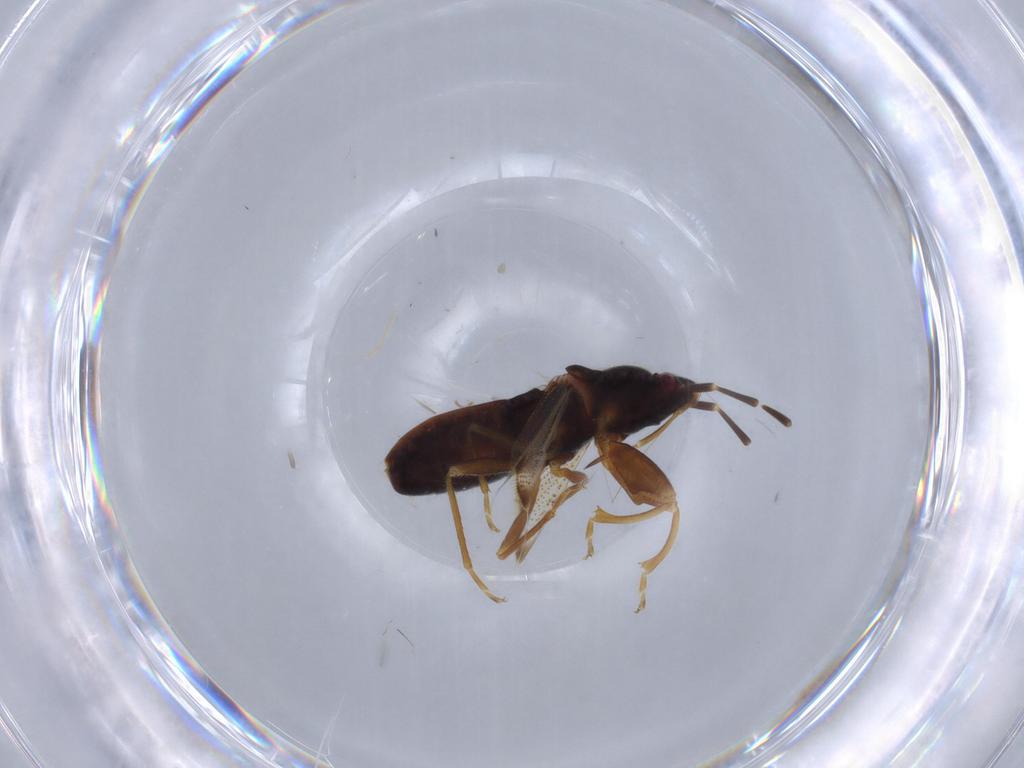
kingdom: Animalia
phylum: Arthropoda
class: Insecta
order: Hemiptera
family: Rhyparochromidae
